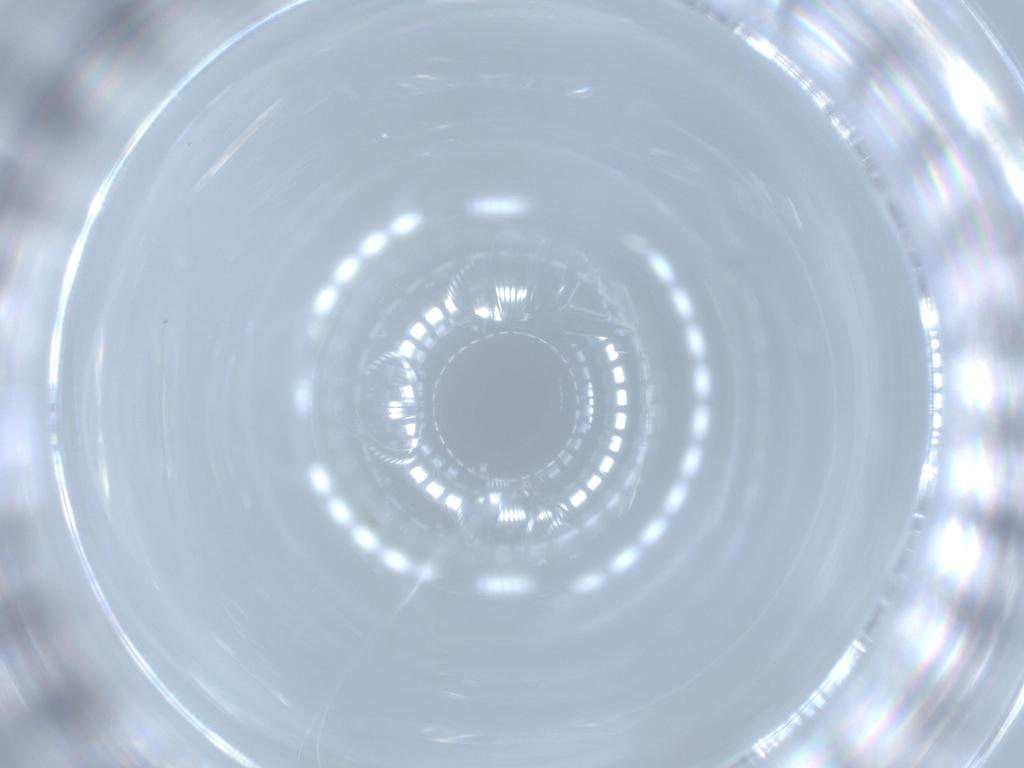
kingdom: Animalia
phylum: Arthropoda
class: Insecta
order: Hymenoptera
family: Mymaridae
